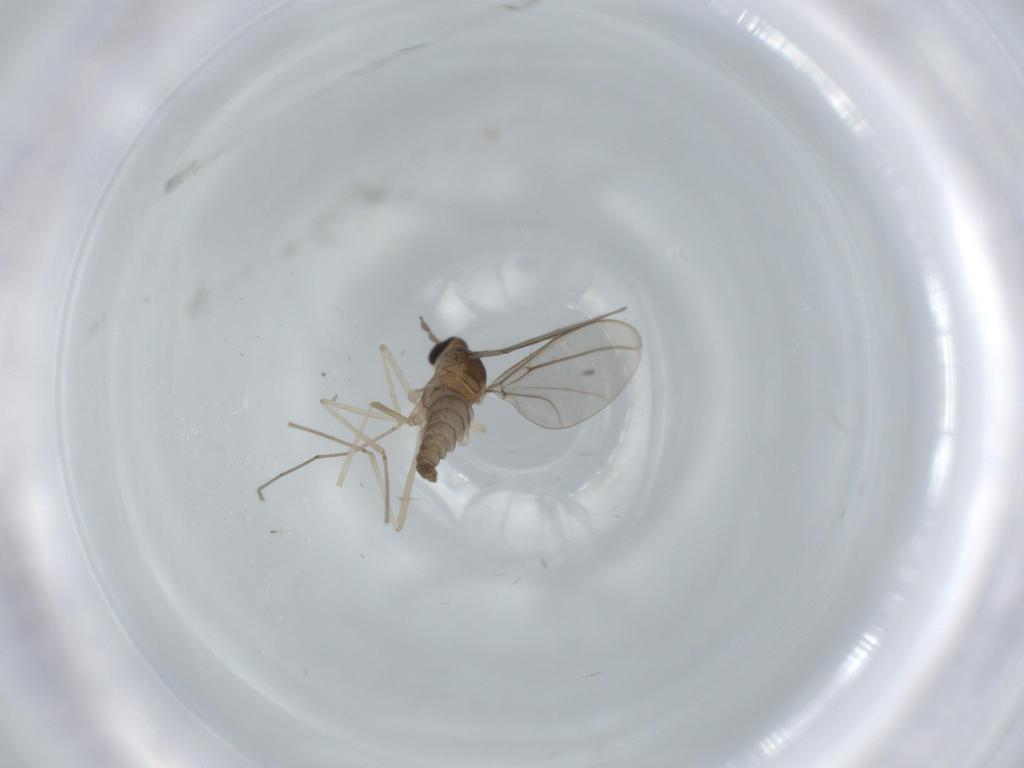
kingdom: Animalia
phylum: Arthropoda
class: Insecta
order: Diptera
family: Cecidomyiidae
